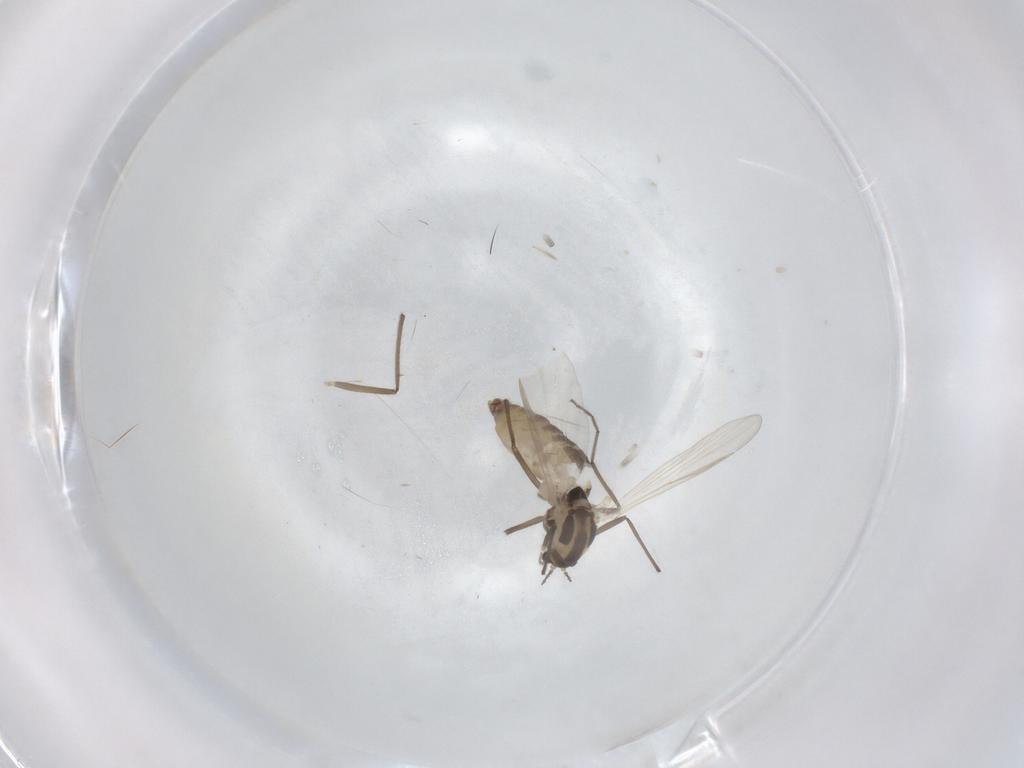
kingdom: Animalia
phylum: Arthropoda
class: Insecta
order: Diptera
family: Chironomidae
